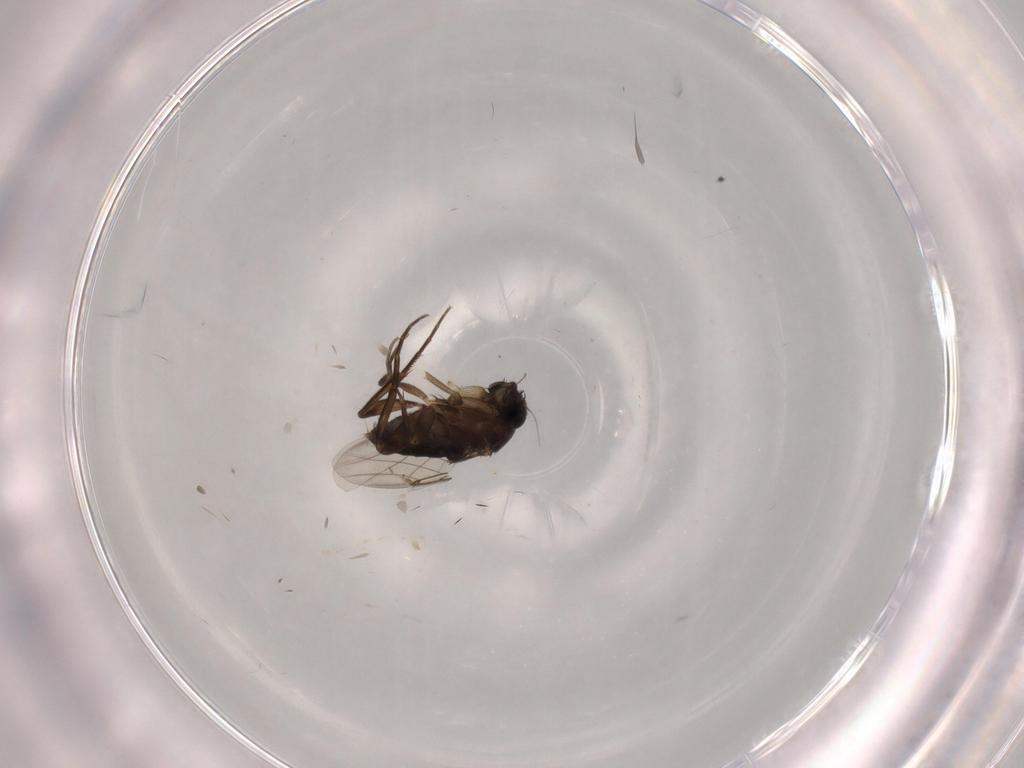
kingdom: Animalia
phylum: Arthropoda
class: Insecta
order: Diptera
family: Phoridae
